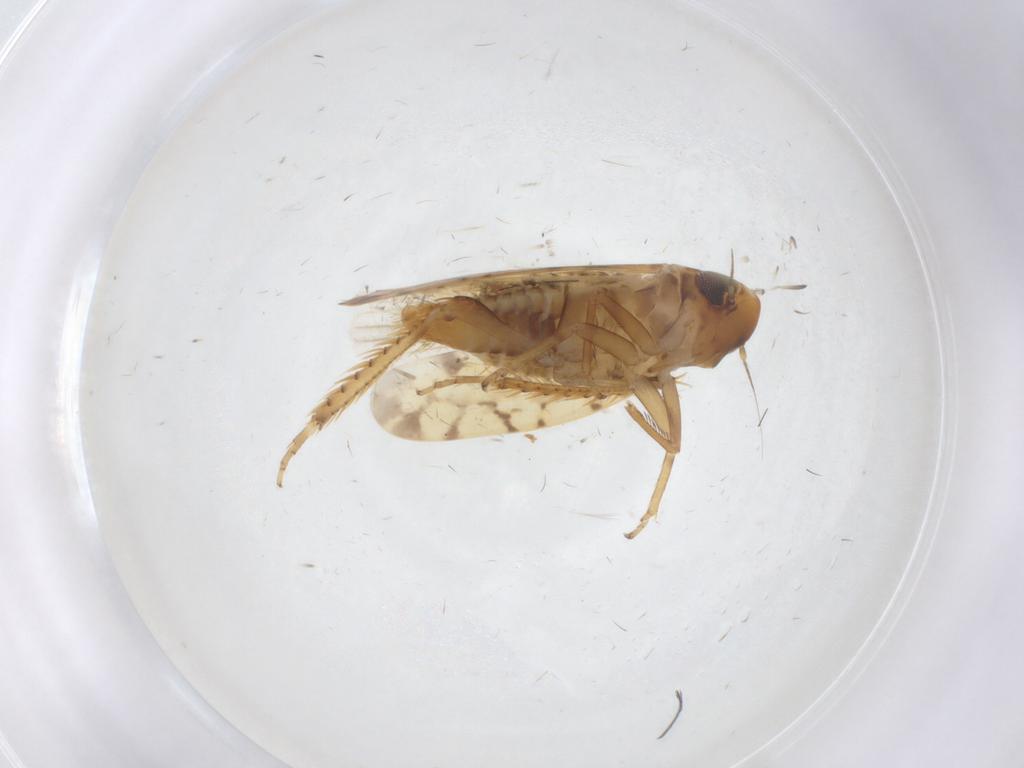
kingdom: Animalia
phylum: Arthropoda
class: Insecta
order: Hemiptera
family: Cicadellidae
